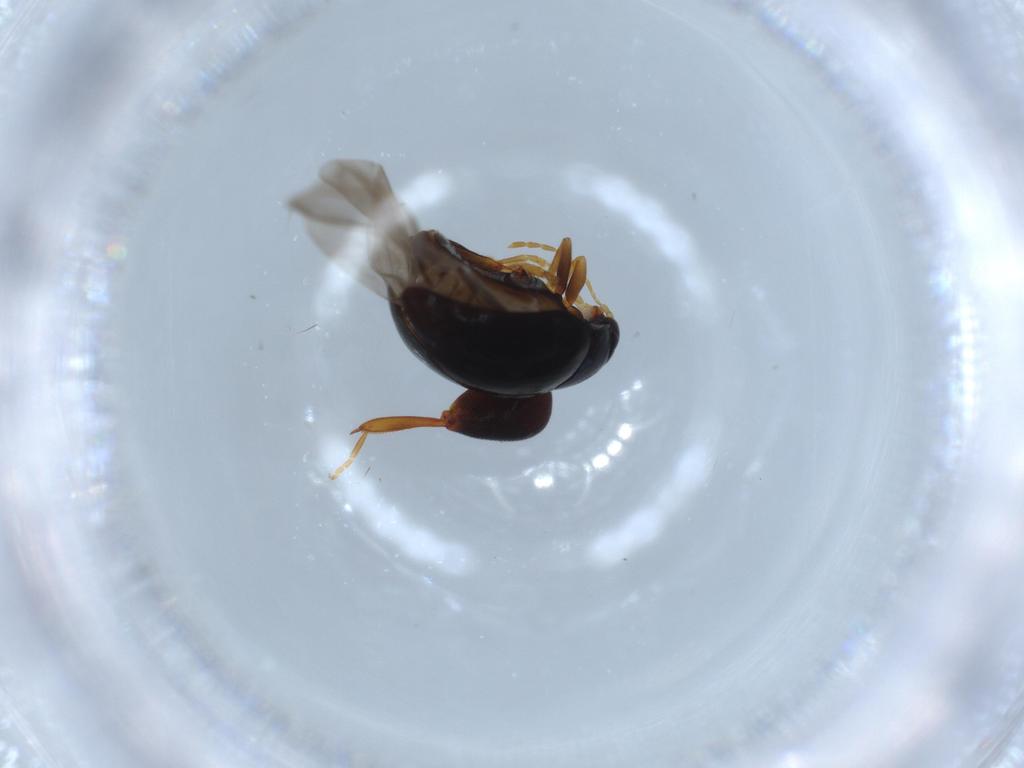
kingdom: Animalia
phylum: Arthropoda
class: Insecta
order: Coleoptera
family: Chrysomelidae
